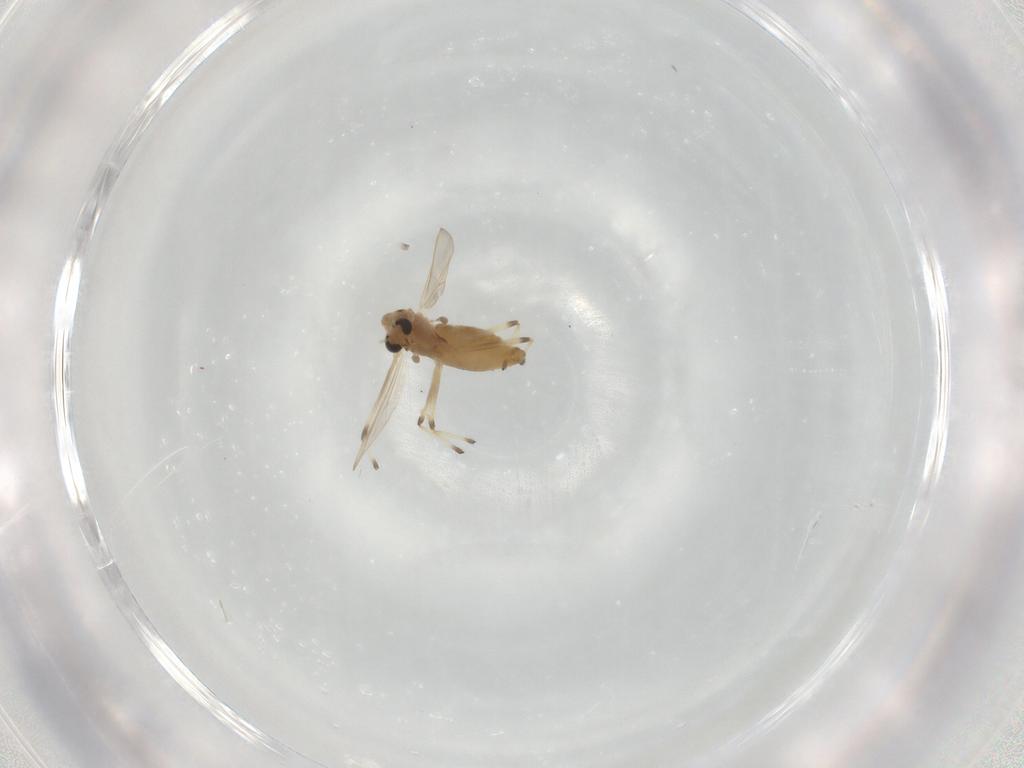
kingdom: Animalia
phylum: Arthropoda
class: Insecta
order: Diptera
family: Chironomidae
